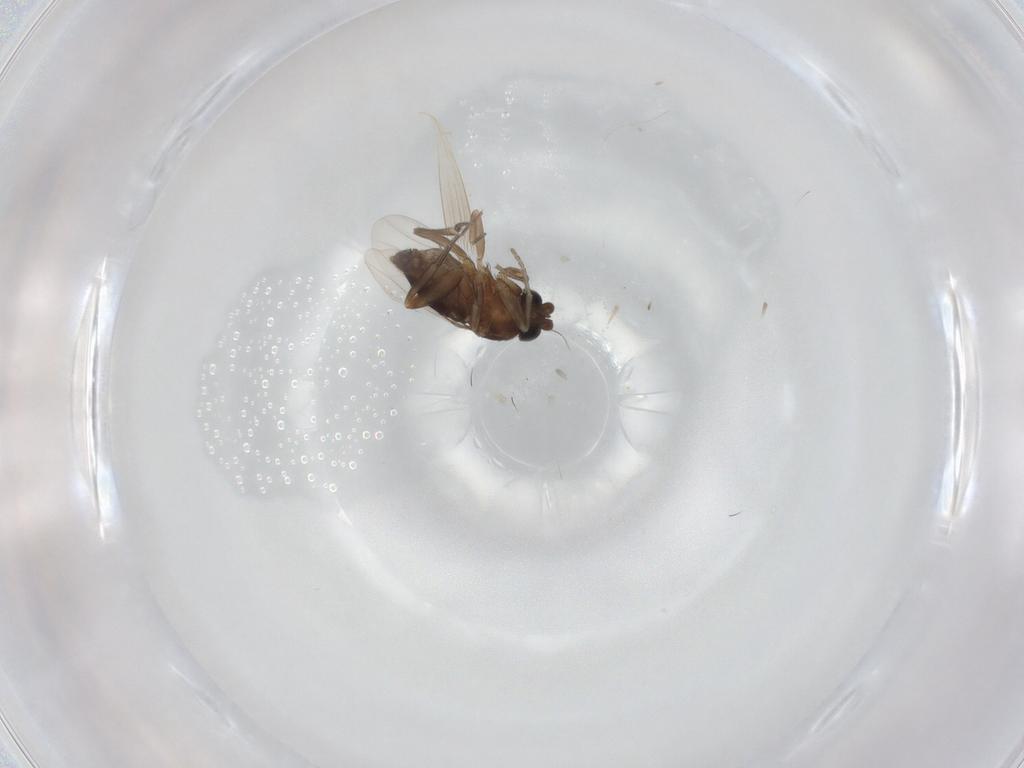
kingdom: Animalia
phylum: Arthropoda
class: Insecta
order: Diptera
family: Phoridae
